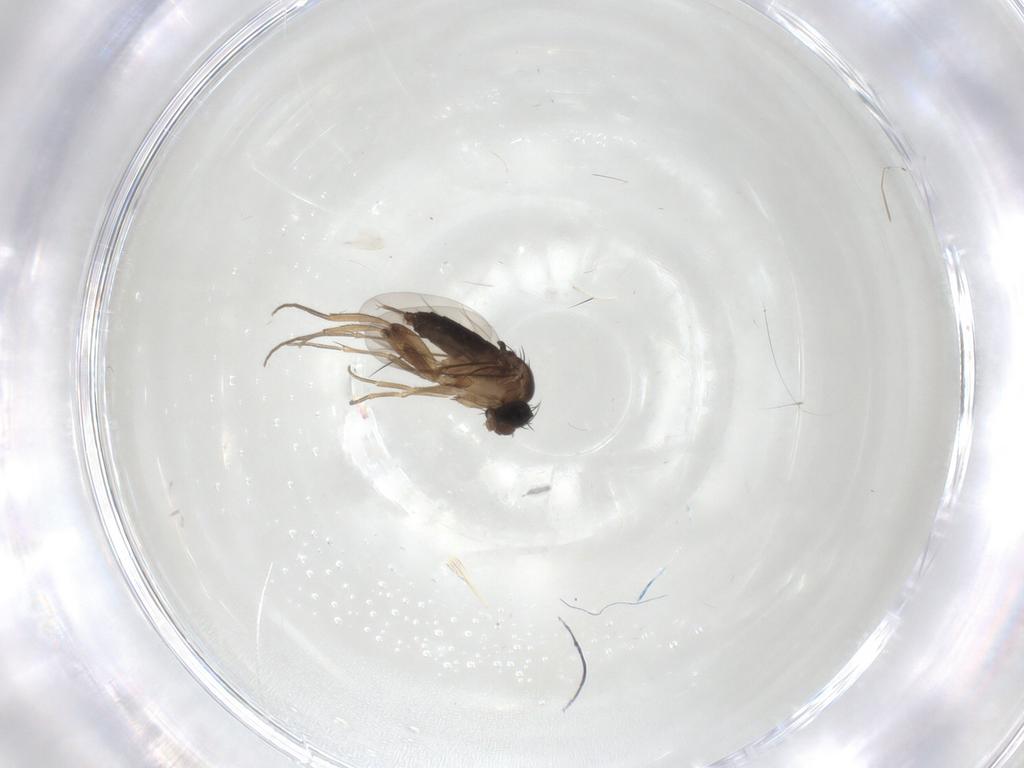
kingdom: Animalia
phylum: Arthropoda
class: Insecta
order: Diptera
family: Phoridae
